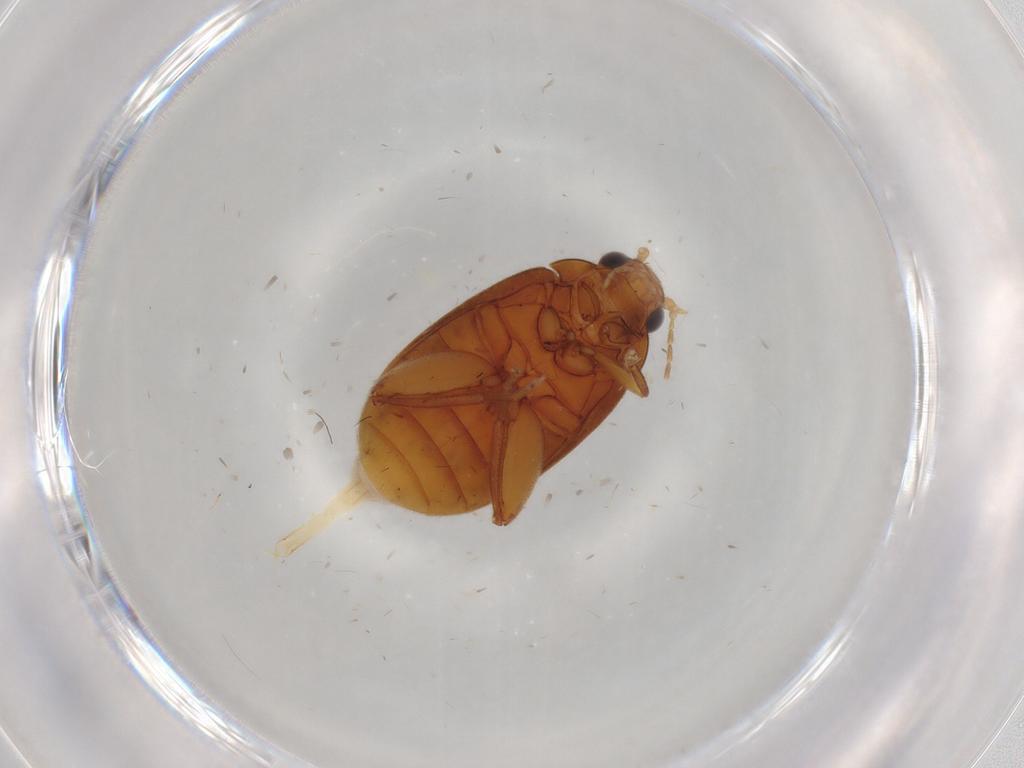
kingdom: Animalia
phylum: Arthropoda
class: Insecta
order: Coleoptera
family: Scirtidae
